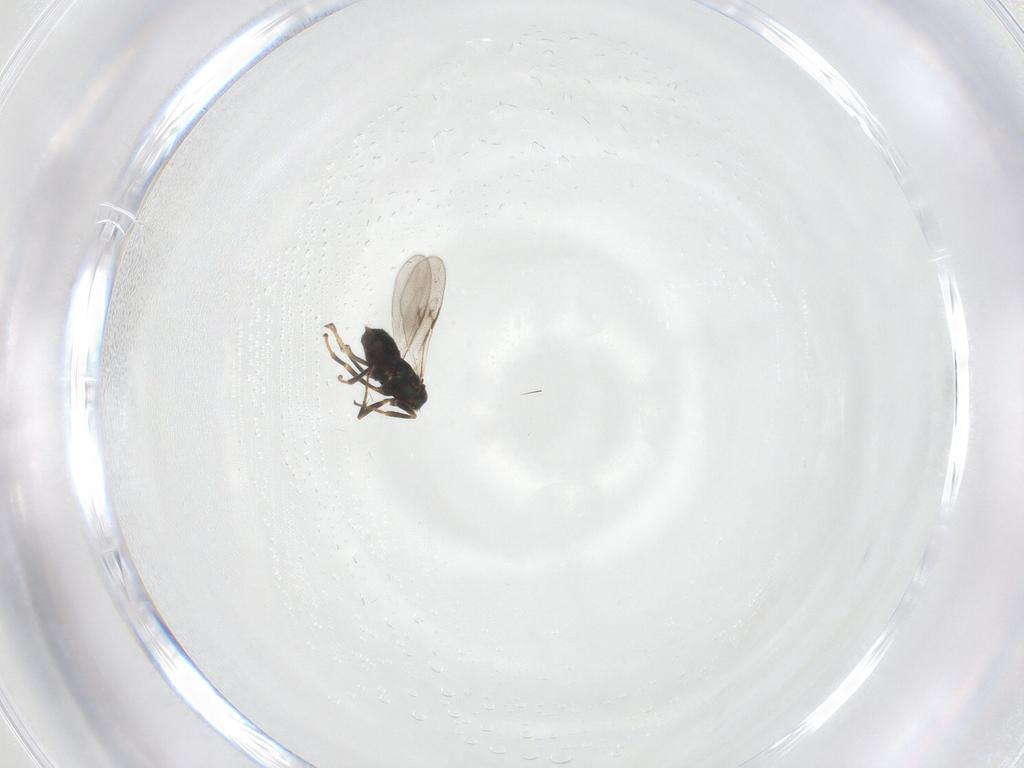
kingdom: Animalia
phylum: Arthropoda
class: Insecta
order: Hymenoptera
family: Encyrtidae
